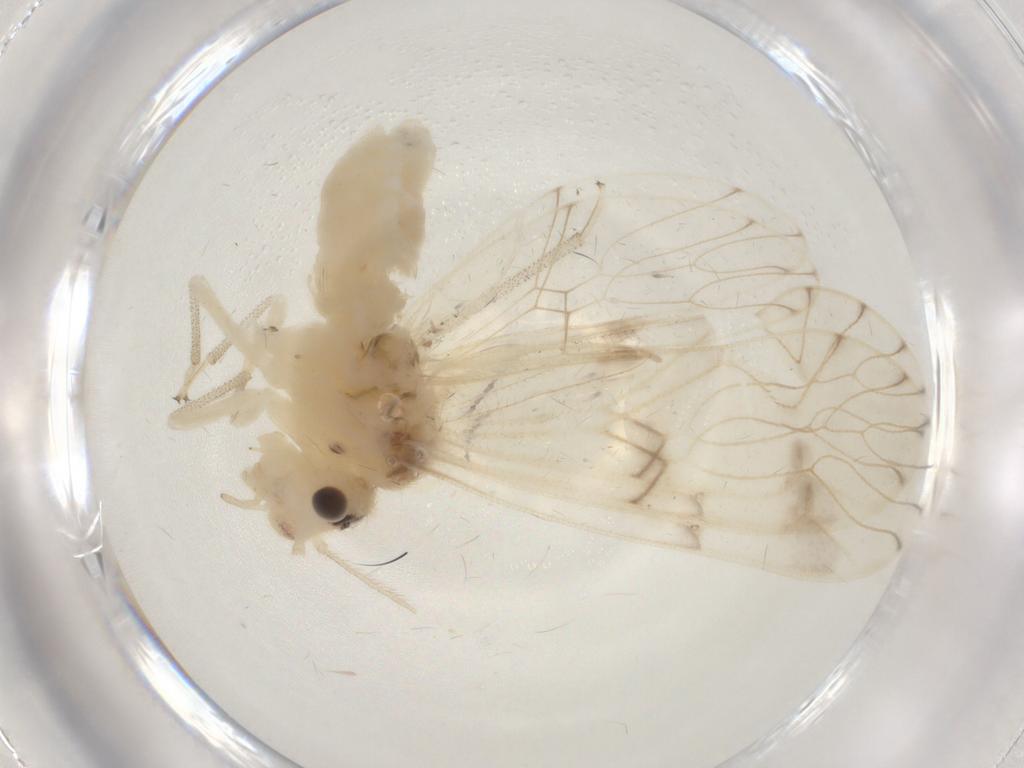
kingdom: Animalia
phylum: Arthropoda
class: Insecta
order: Psocodea
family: Amphipsocidae
